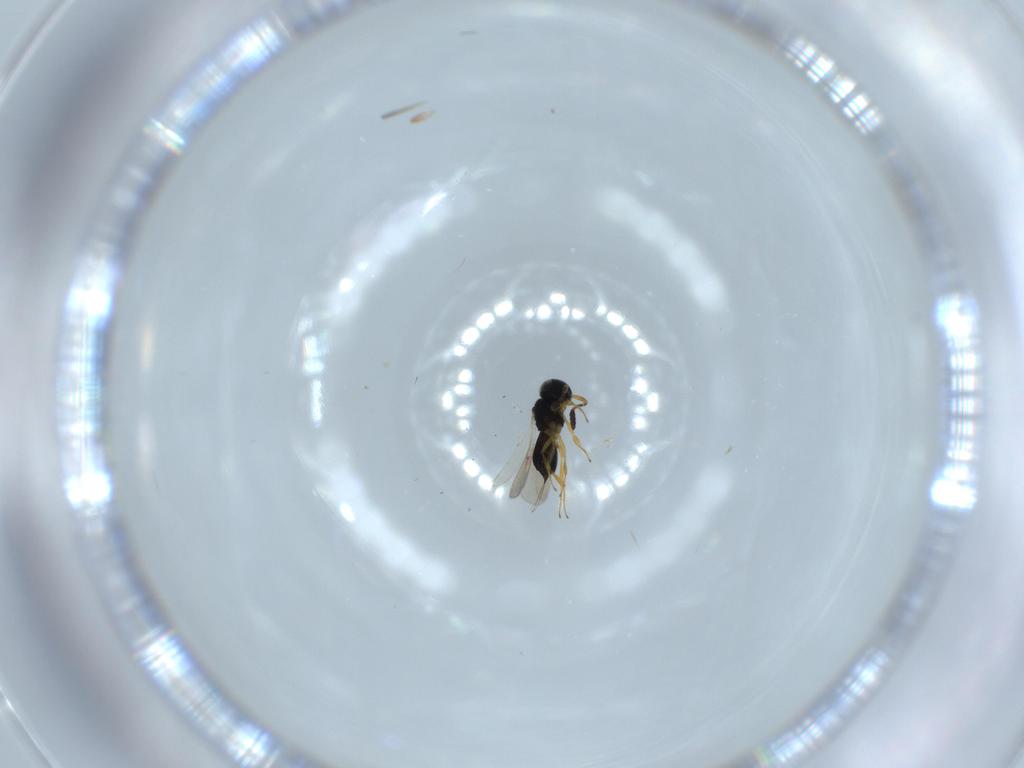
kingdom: Animalia
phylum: Arthropoda
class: Insecta
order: Hymenoptera
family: Scelionidae
